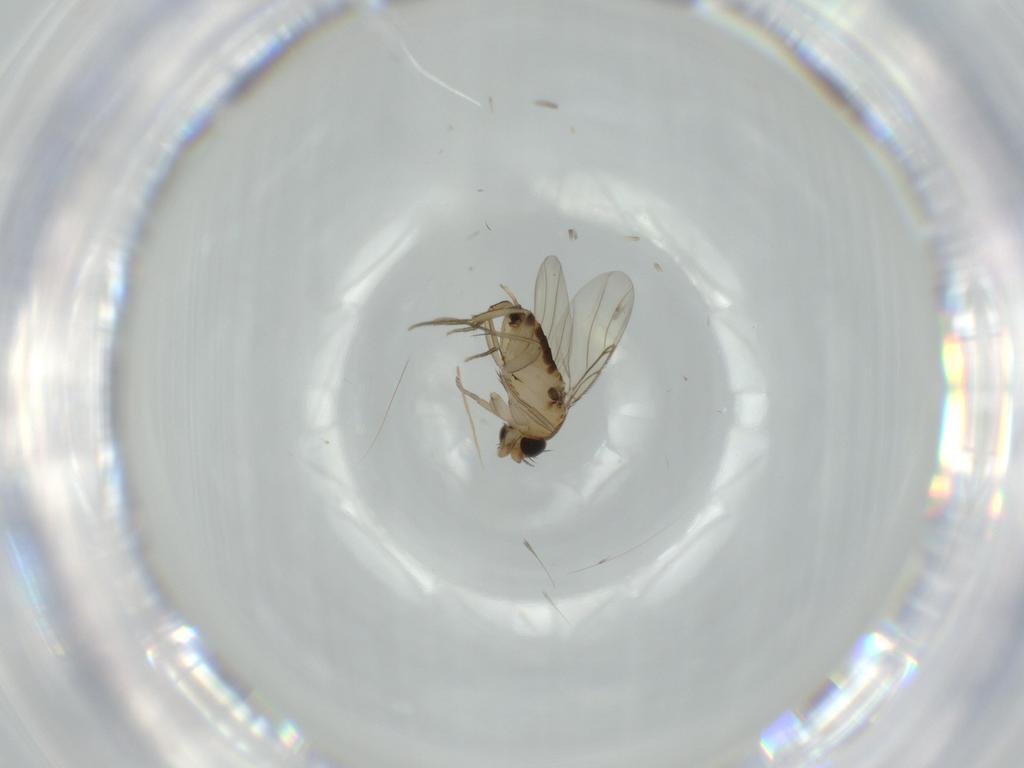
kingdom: Animalia
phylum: Arthropoda
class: Insecta
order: Diptera
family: Phoridae
